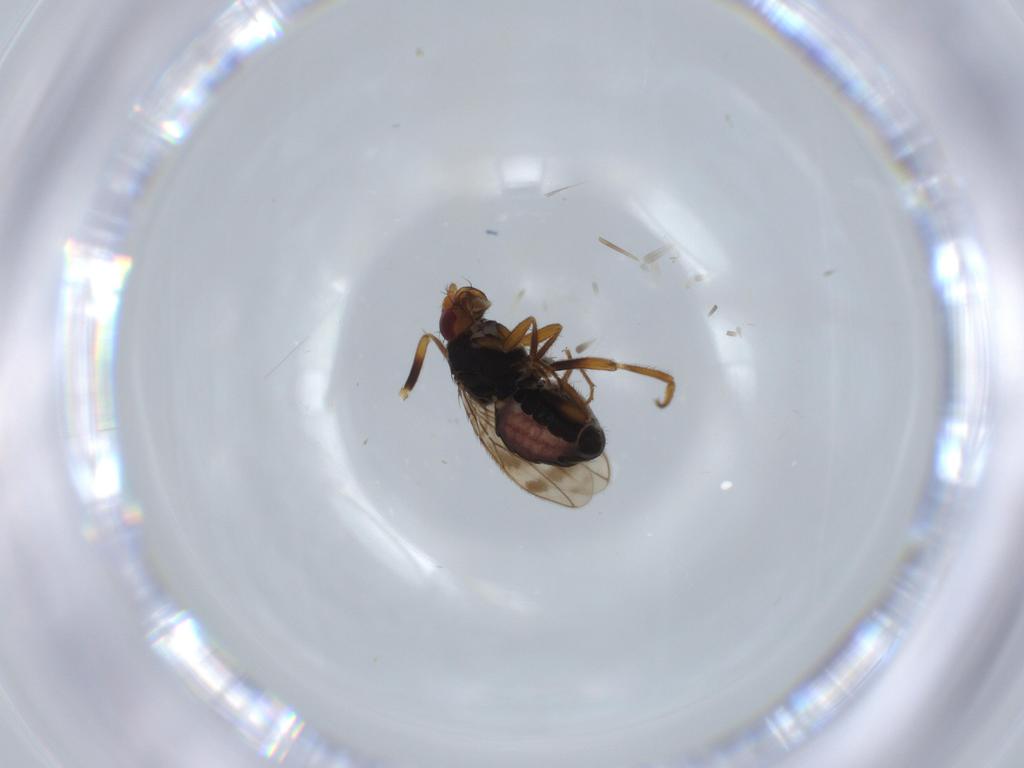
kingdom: Animalia
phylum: Arthropoda
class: Insecta
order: Diptera
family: Sphaeroceridae
